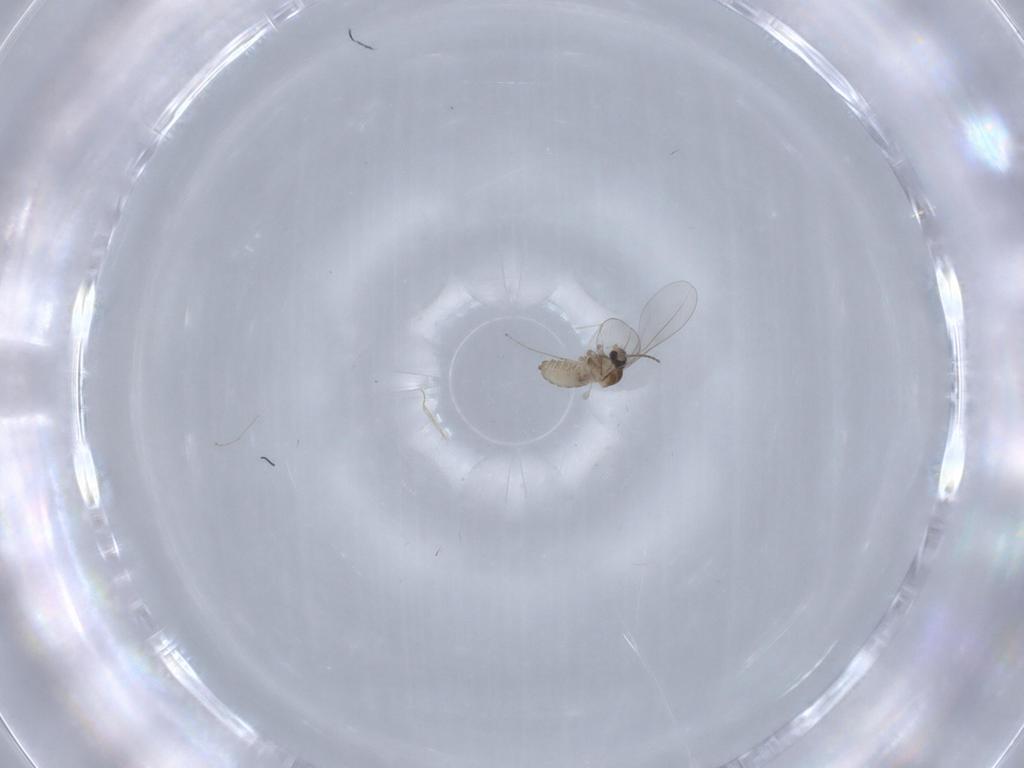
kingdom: Animalia
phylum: Arthropoda
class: Insecta
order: Diptera
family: Cecidomyiidae
